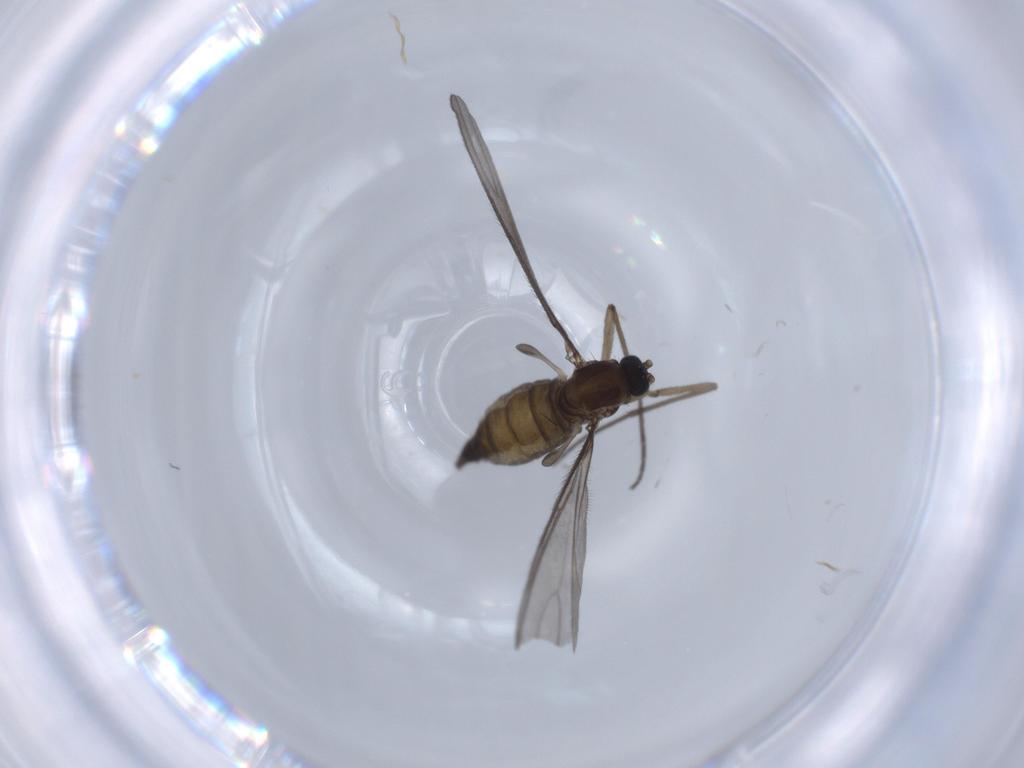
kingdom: Animalia
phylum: Arthropoda
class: Insecta
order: Diptera
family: Sciaridae
